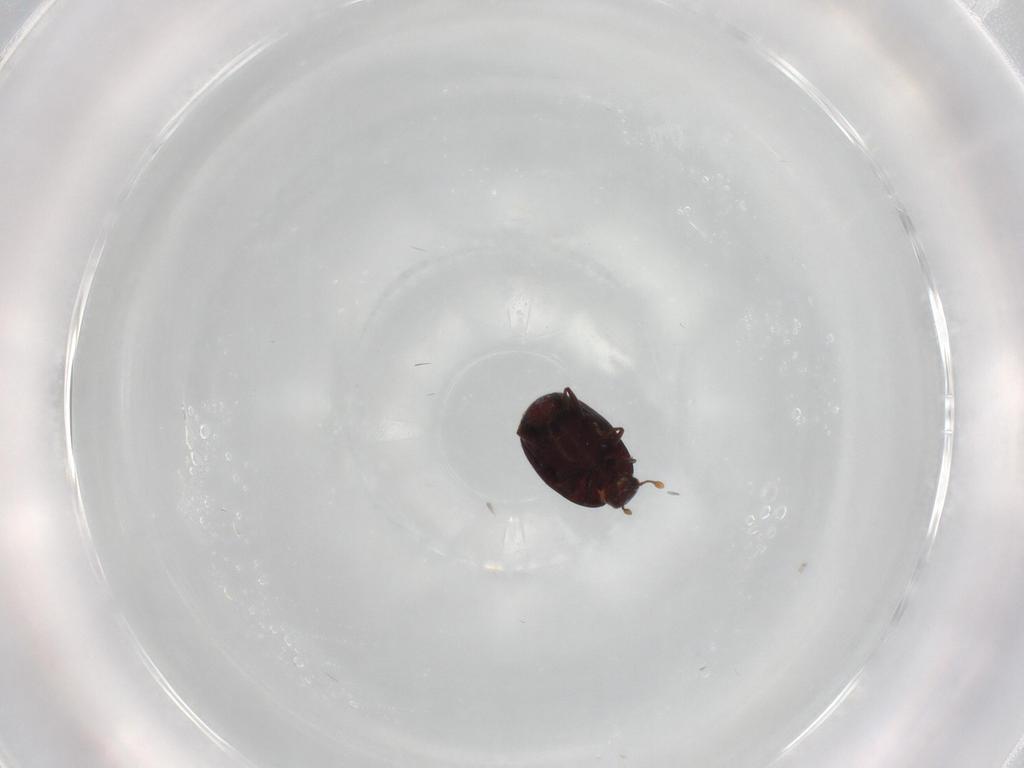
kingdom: Animalia
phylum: Arthropoda
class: Insecta
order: Coleoptera
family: Staphylinidae
